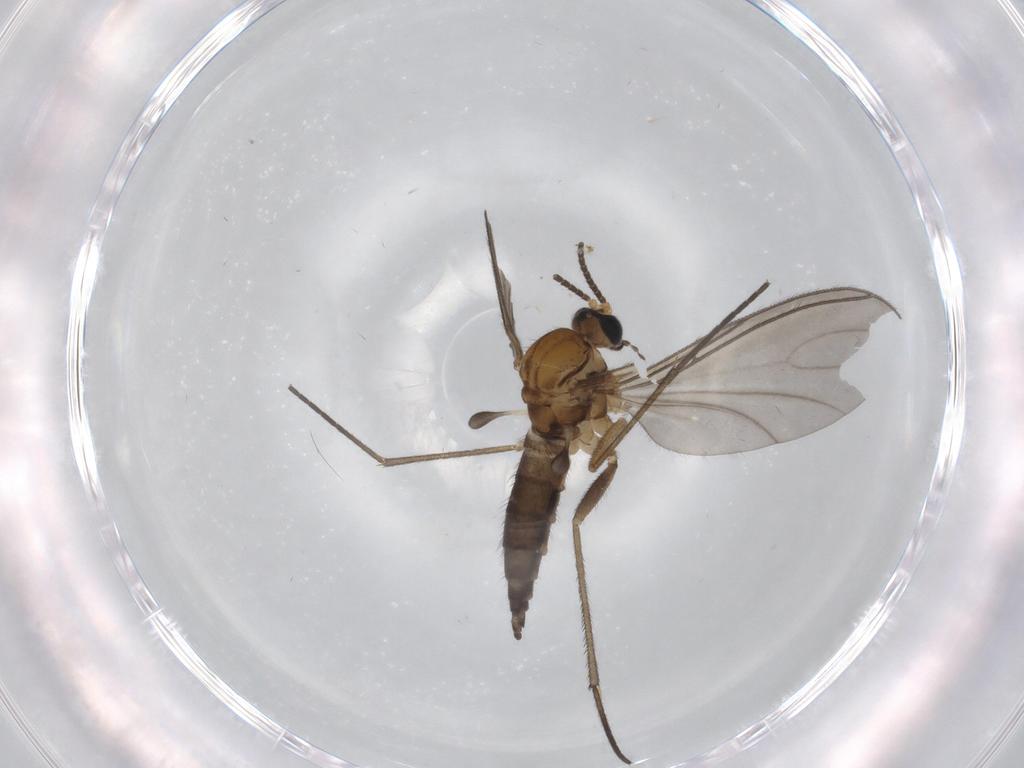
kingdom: Animalia
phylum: Arthropoda
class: Insecta
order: Diptera
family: Sciaridae
